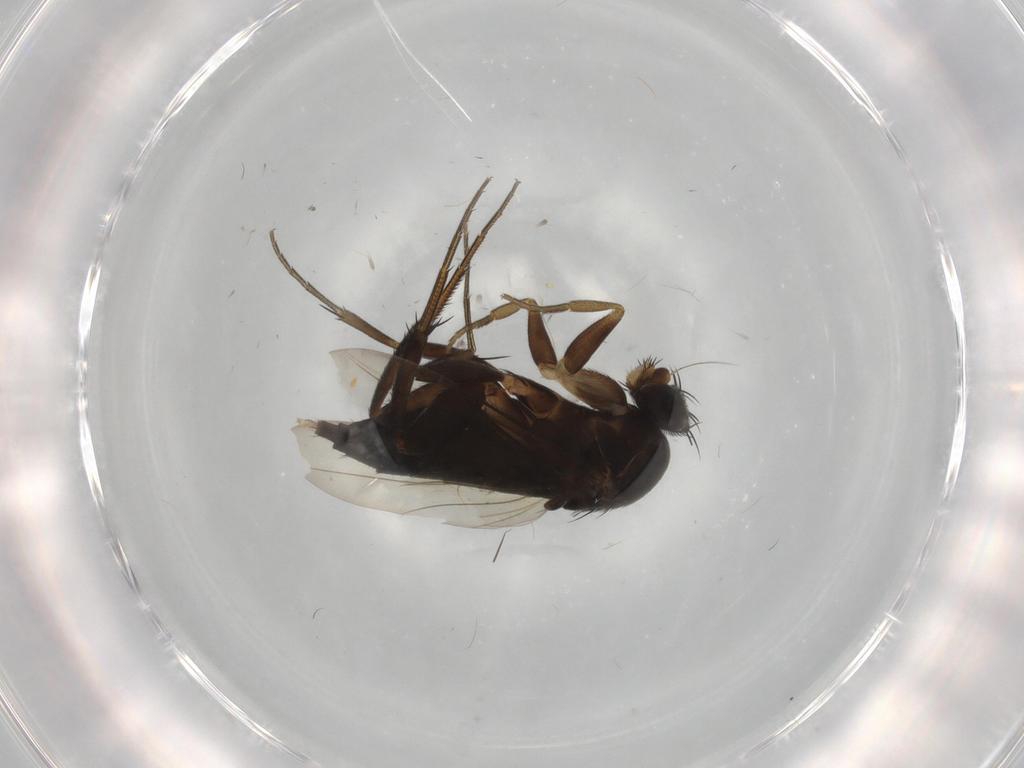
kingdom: Animalia
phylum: Arthropoda
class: Insecta
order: Diptera
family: Phoridae
